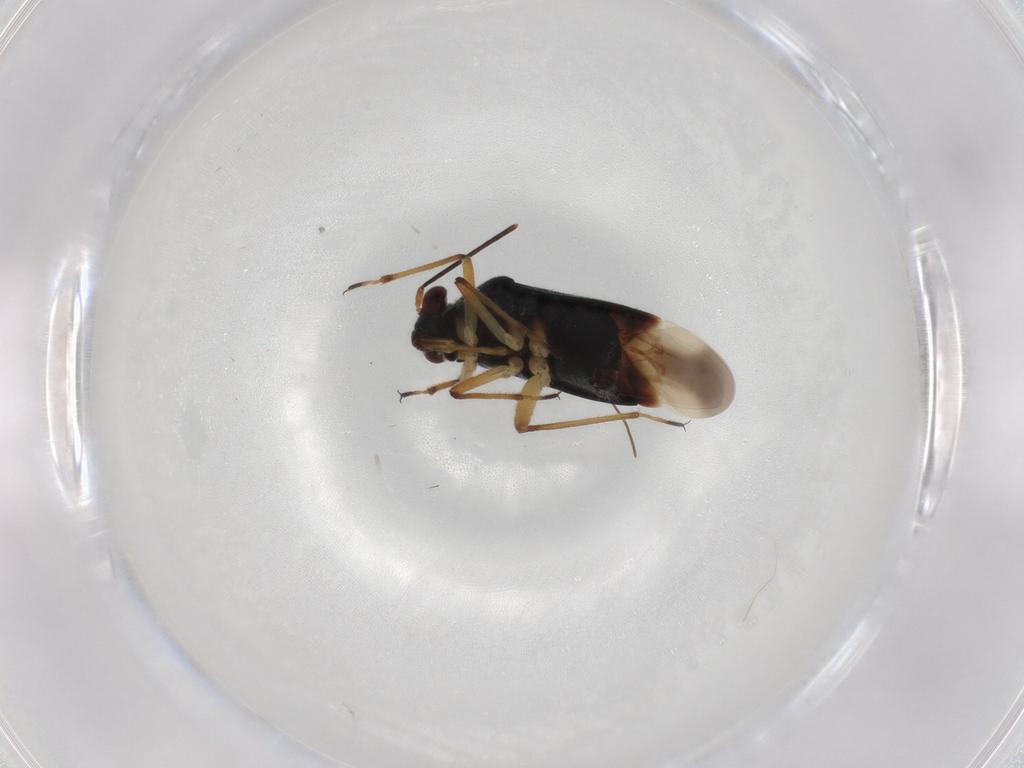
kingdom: Animalia
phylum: Arthropoda
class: Insecta
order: Hemiptera
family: Miridae
